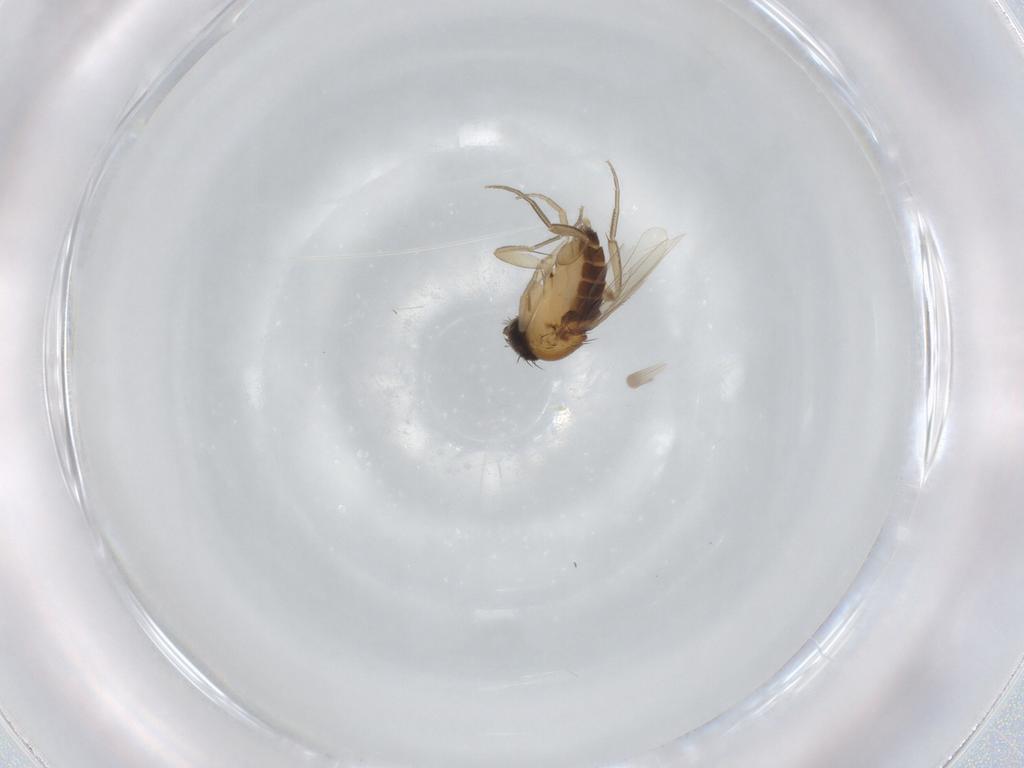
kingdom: Animalia
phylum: Arthropoda
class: Insecta
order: Diptera
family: Phoridae
